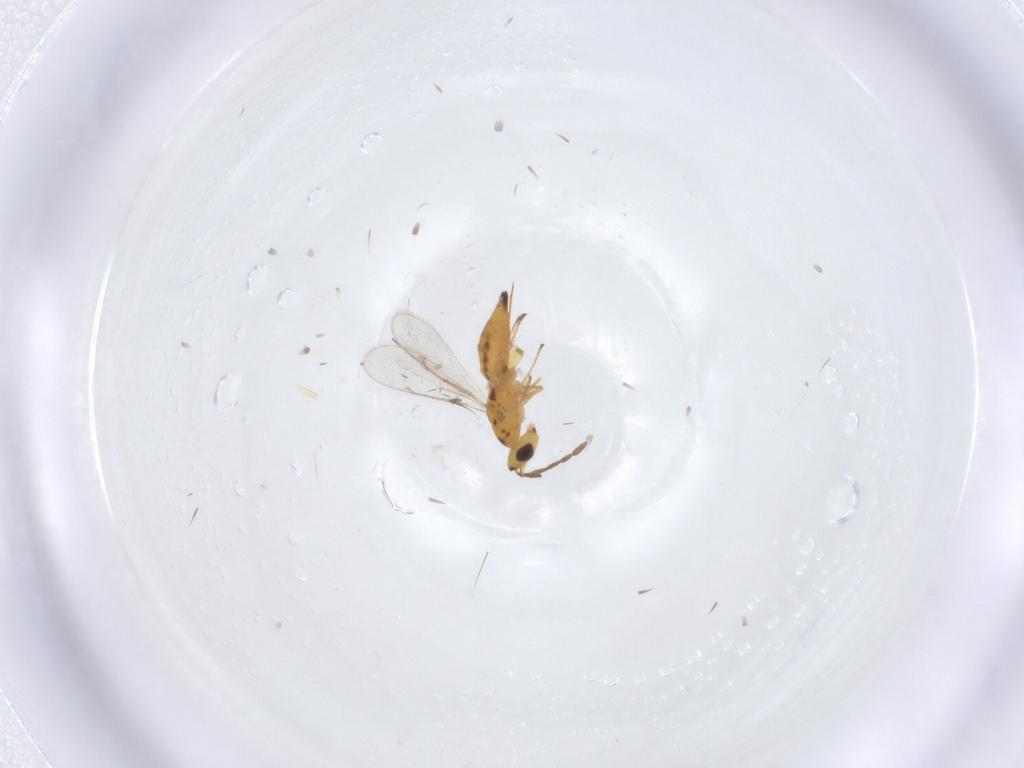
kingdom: Animalia
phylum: Arthropoda
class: Insecta
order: Hymenoptera
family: Eulophidae
